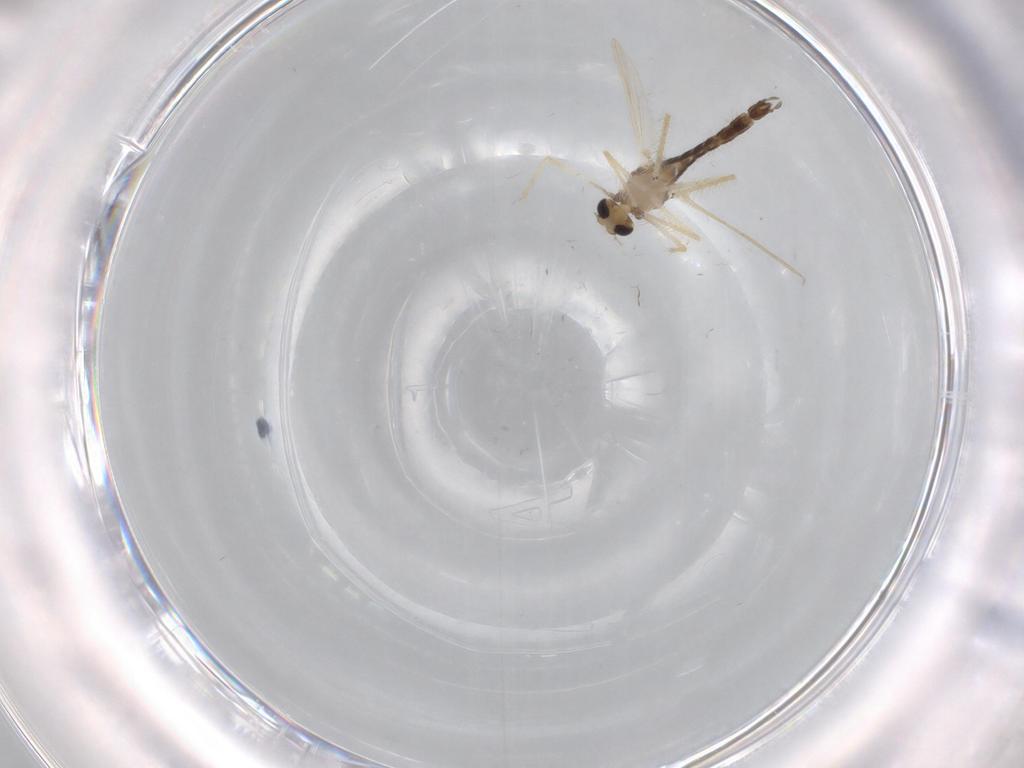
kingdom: Animalia
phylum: Arthropoda
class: Insecta
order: Diptera
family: Chironomidae
